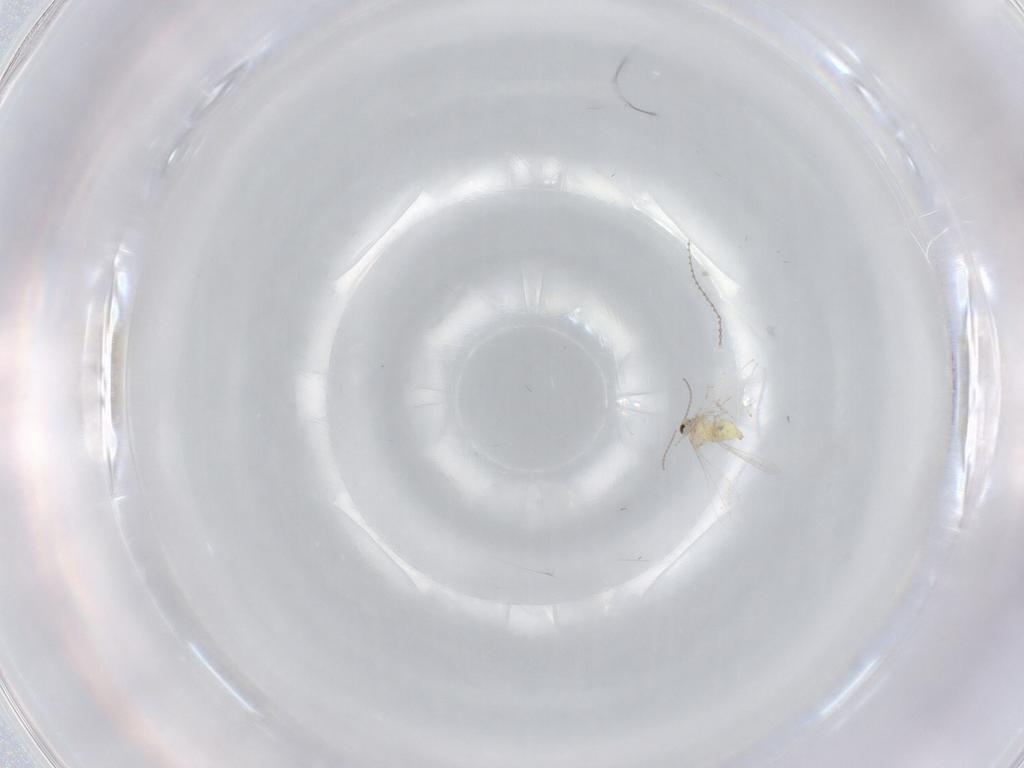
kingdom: Animalia
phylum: Arthropoda
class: Insecta
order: Diptera
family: Cecidomyiidae
